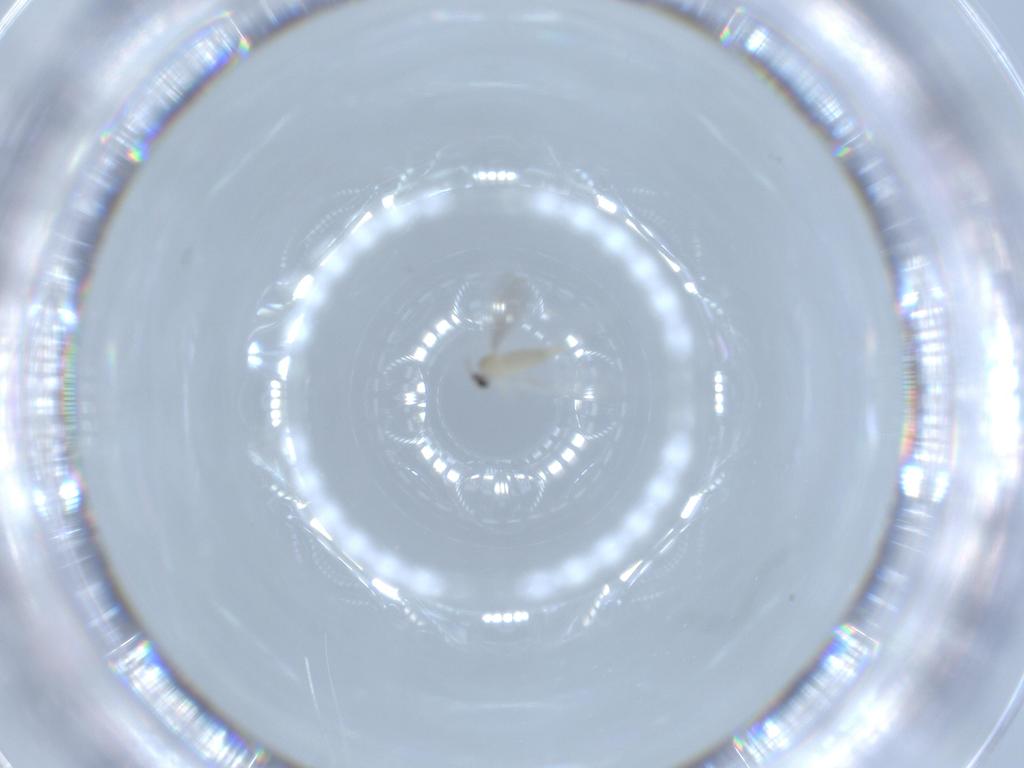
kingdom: Animalia
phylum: Arthropoda
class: Insecta
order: Diptera
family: Cecidomyiidae
